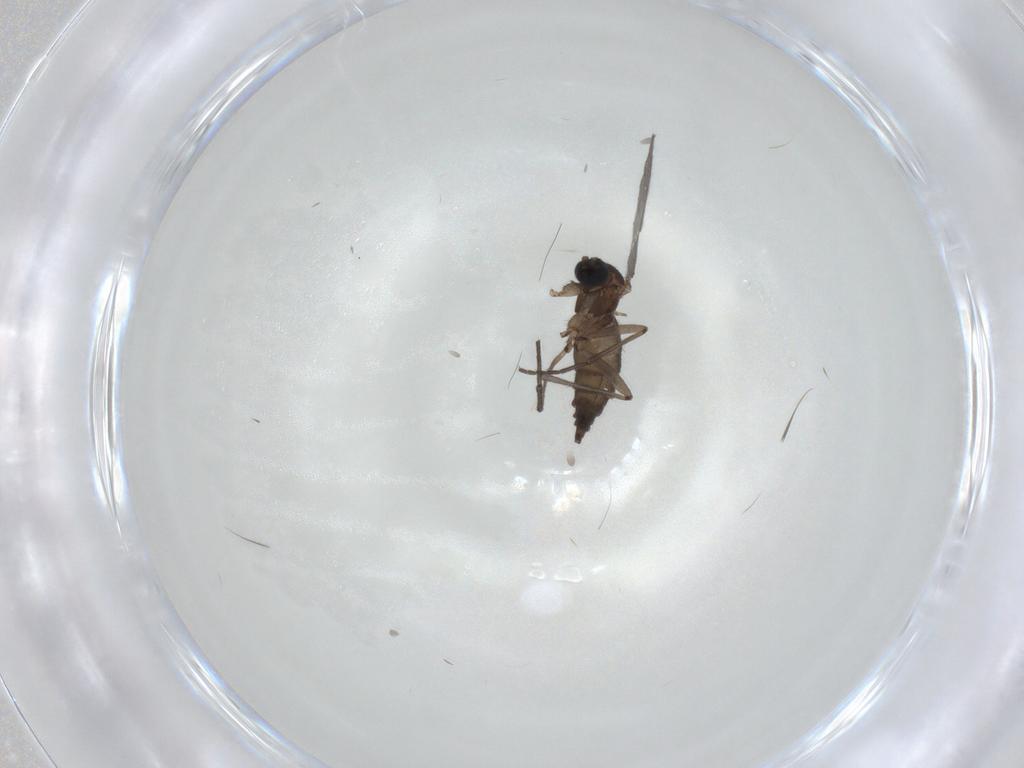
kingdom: Animalia
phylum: Arthropoda
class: Insecta
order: Diptera
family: Sciaridae
